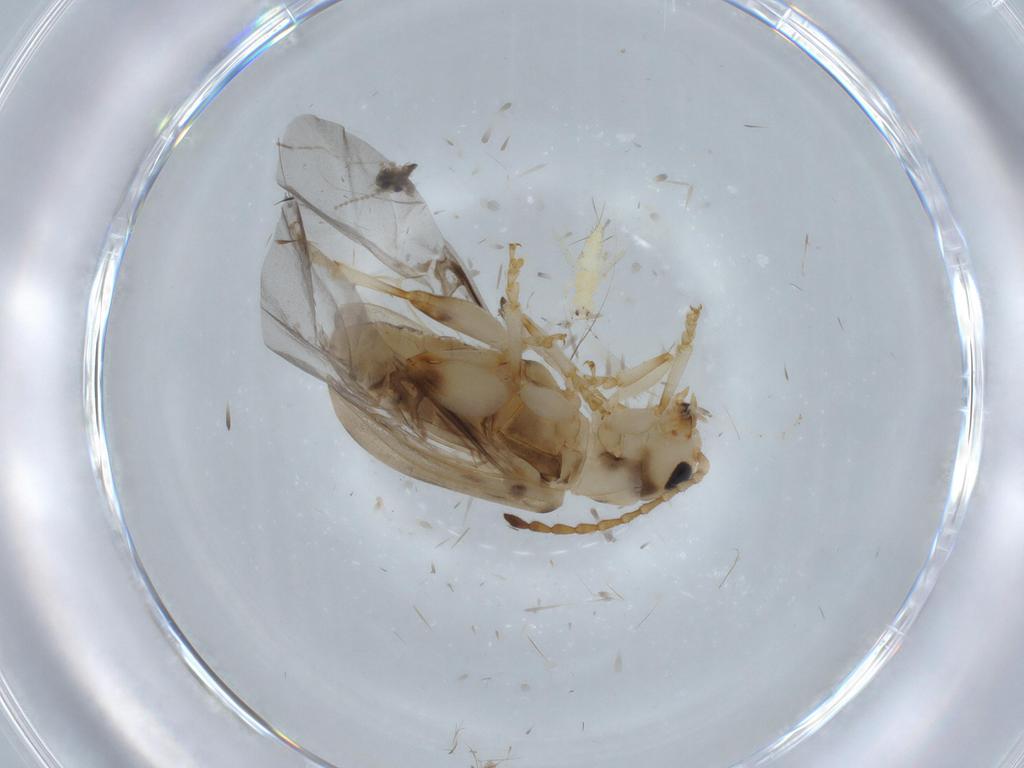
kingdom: Animalia
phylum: Arthropoda
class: Insecta
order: Coleoptera
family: Chrysomelidae
